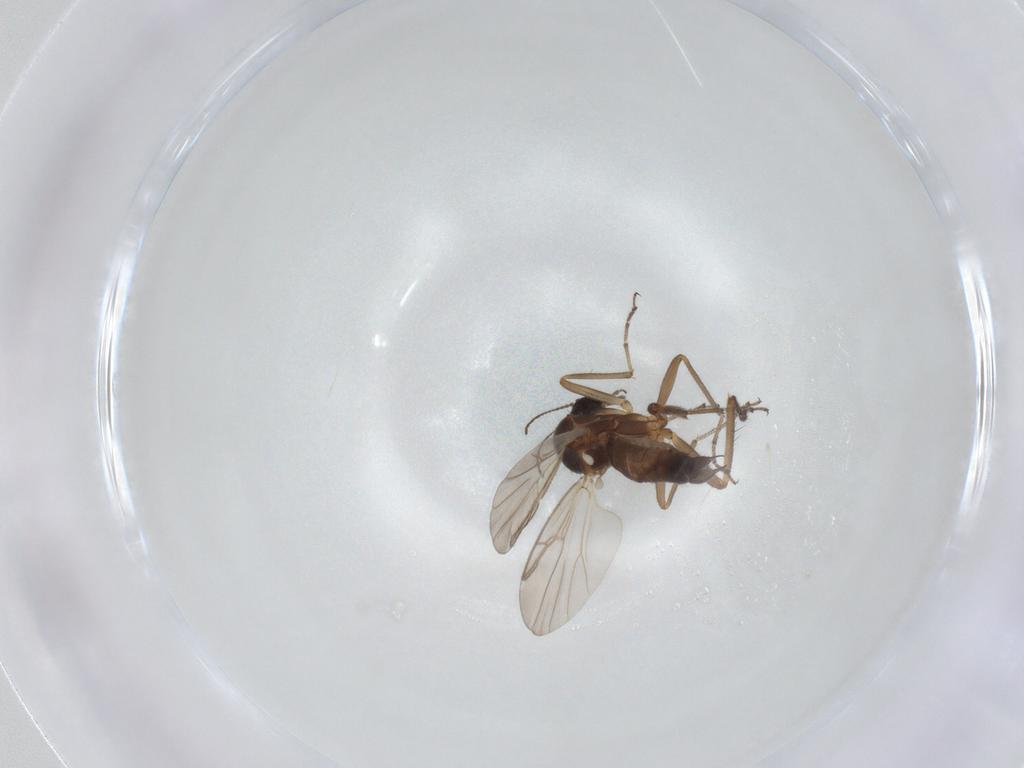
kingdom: Animalia
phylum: Arthropoda
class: Insecta
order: Diptera
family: Ceratopogonidae
